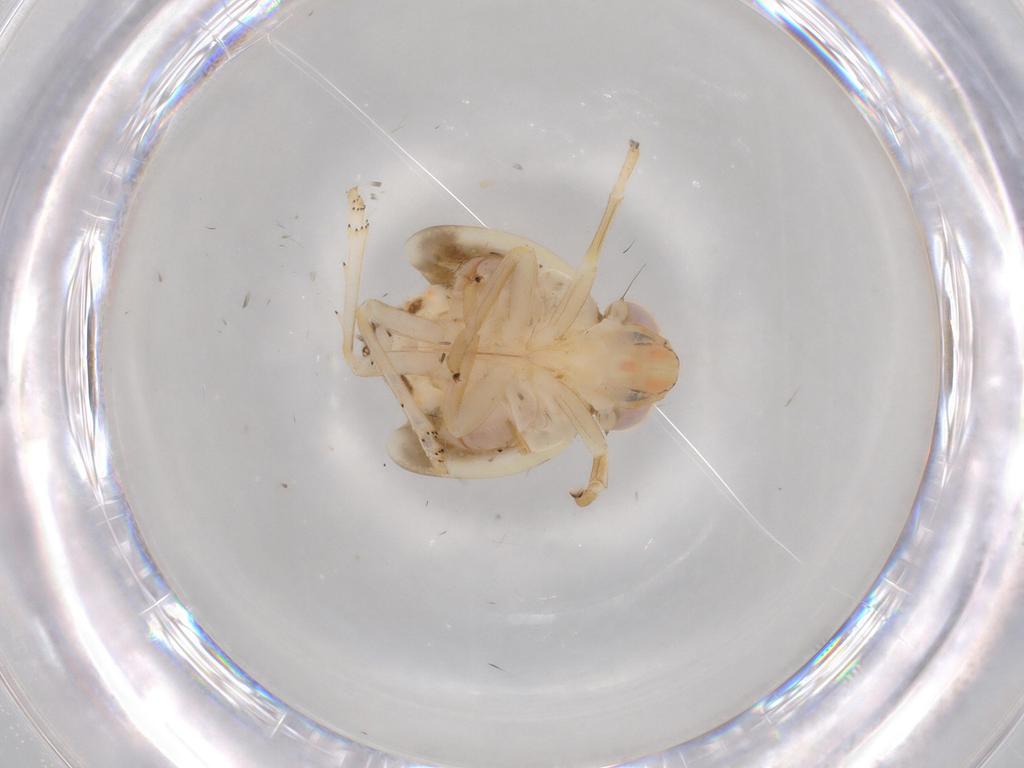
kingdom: Animalia
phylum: Arthropoda
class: Insecta
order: Hemiptera
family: Nogodinidae
